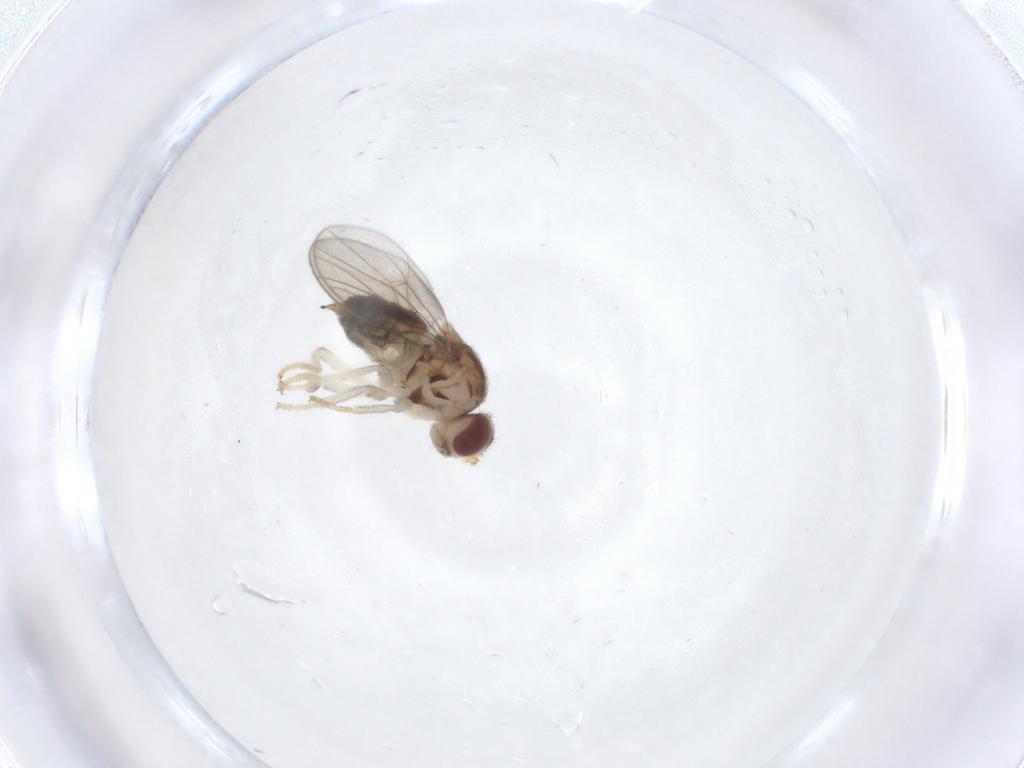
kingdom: Animalia
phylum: Arthropoda
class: Insecta
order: Diptera
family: Chloropidae
